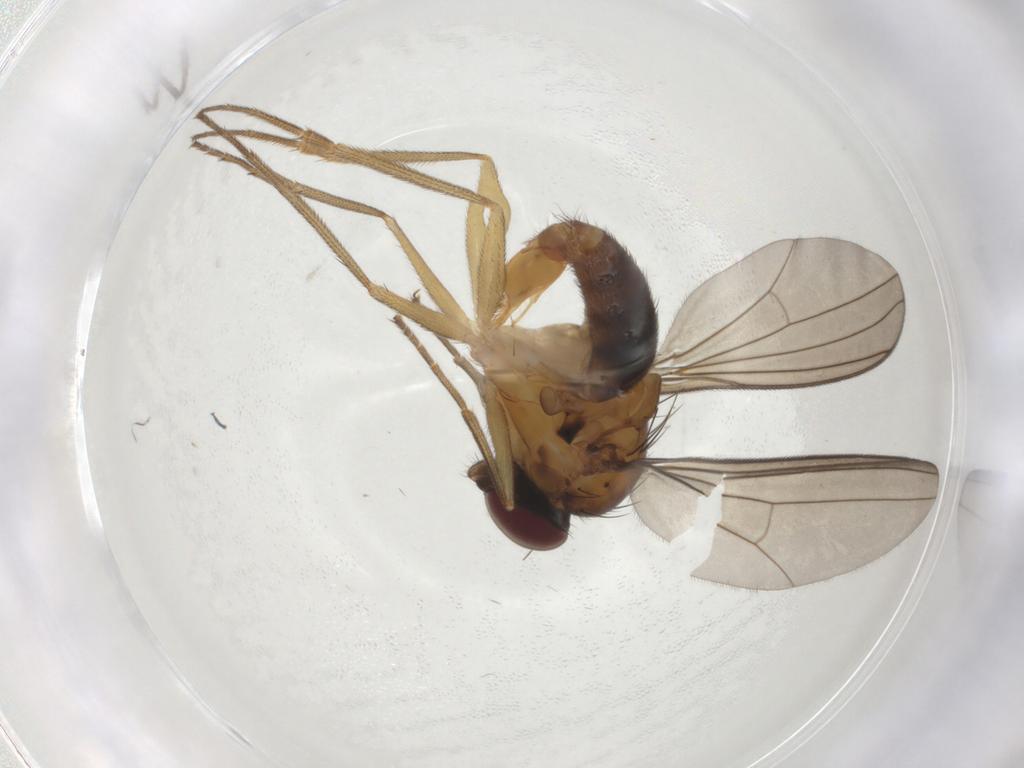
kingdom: Animalia
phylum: Arthropoda
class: Insecta
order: Diptera
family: Dolichopodidae
